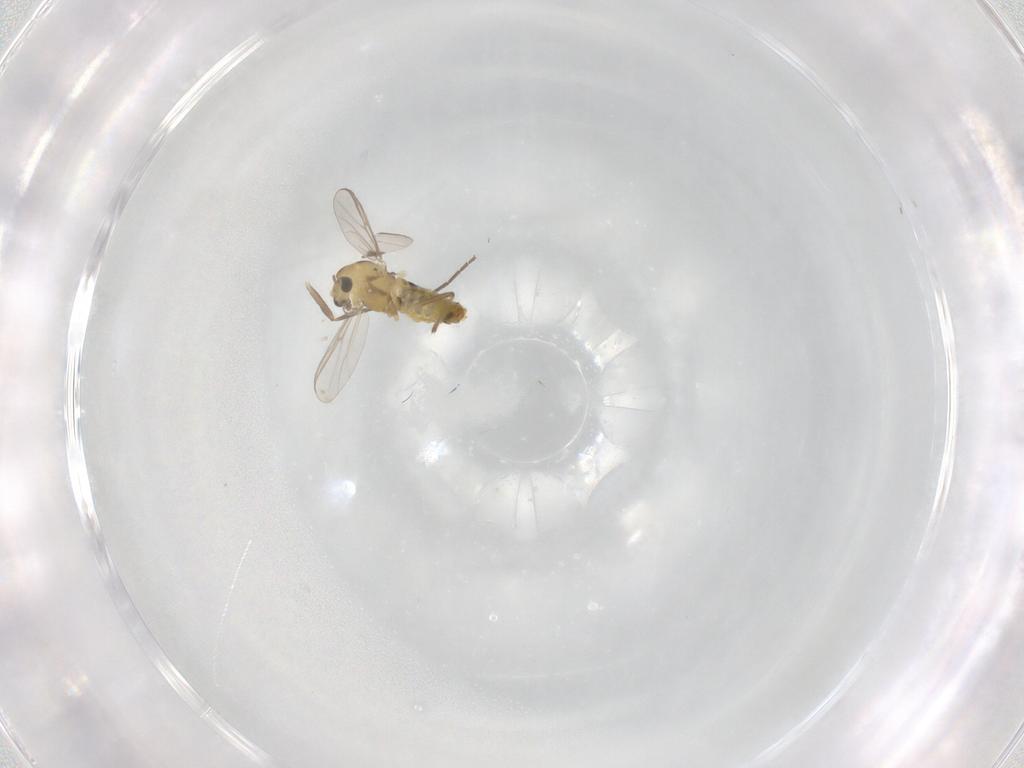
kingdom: Animalia
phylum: Arthropoda
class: Insecta
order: Diptera
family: Chironomidae
